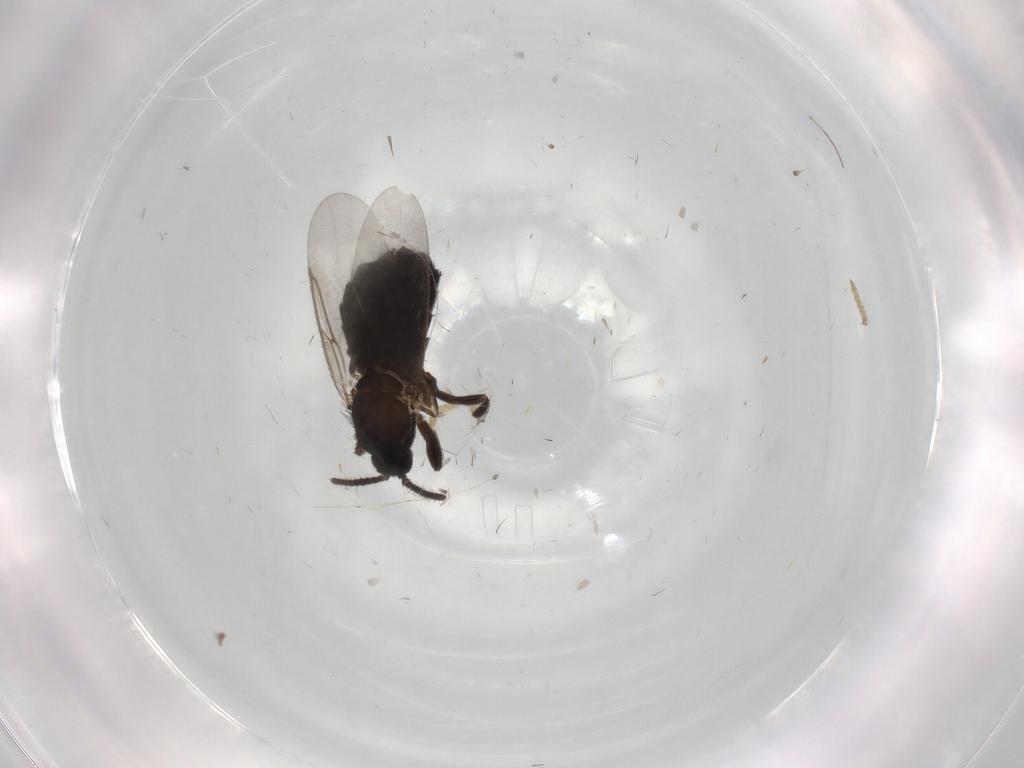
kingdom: Animalia
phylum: Arthropoda
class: Insecta
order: Diptera
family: Scatopsidae
